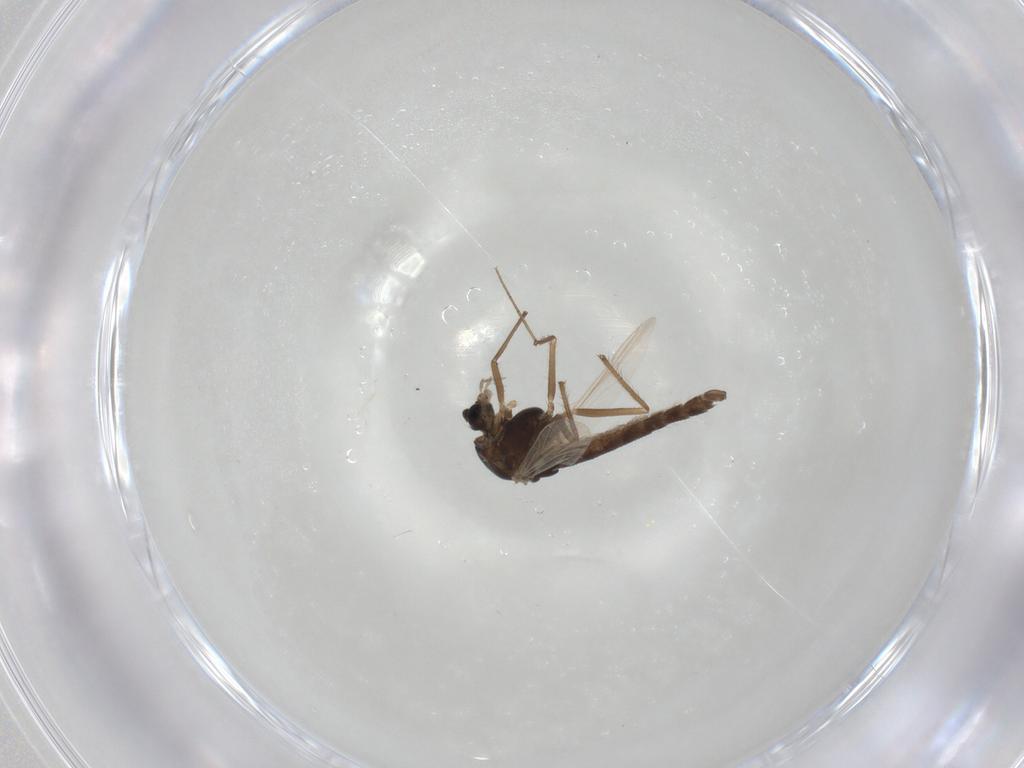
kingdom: Animalia
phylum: Arthropoda
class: Insecta
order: Diptera
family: Chironomidae
